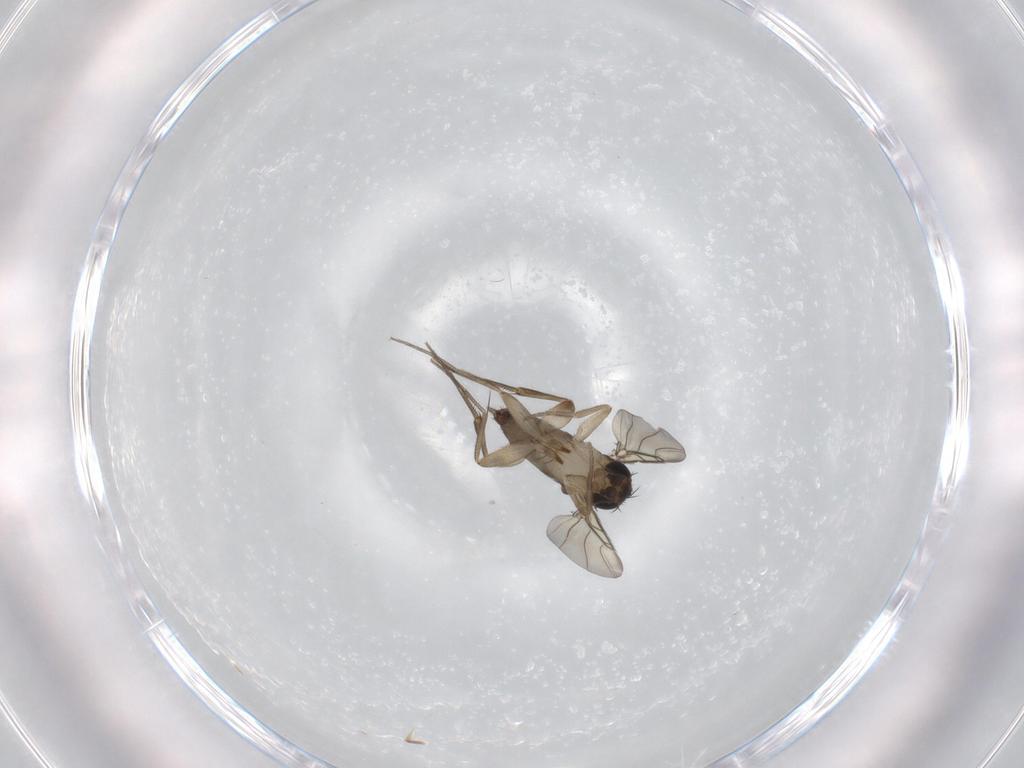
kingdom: Animalia
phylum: Arthropoda
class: Insecta
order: Diptera
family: Phoridae
